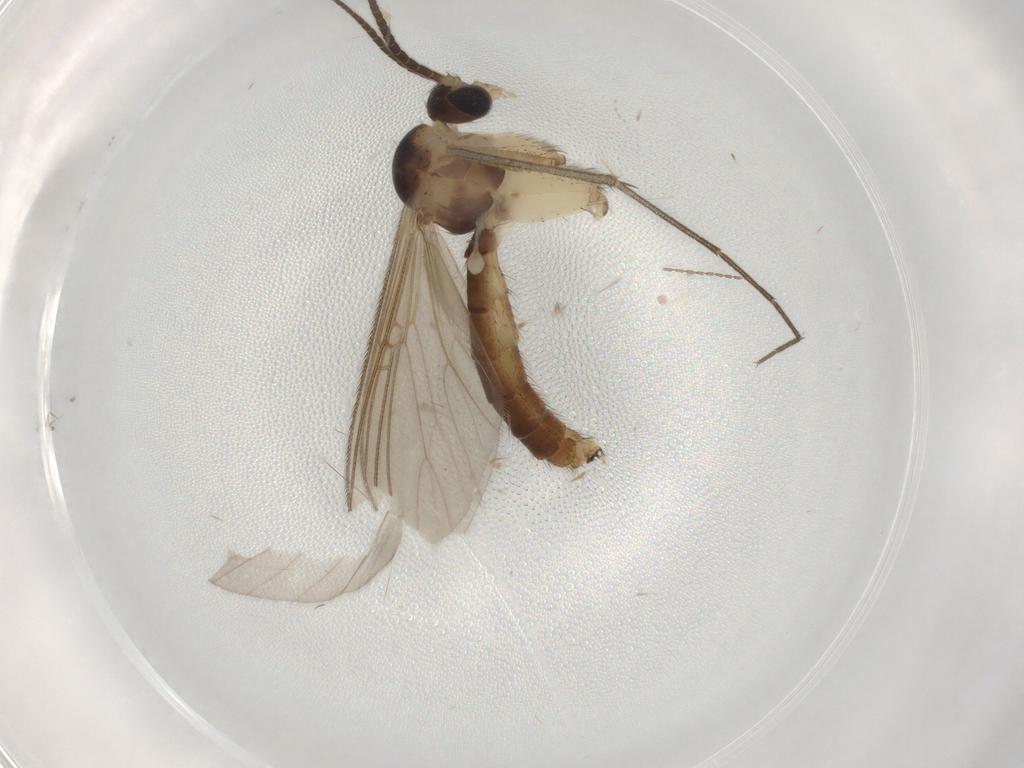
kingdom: Animalia
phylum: Arthropoda
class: Insecta
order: Diptera
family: Mycetophilidae
